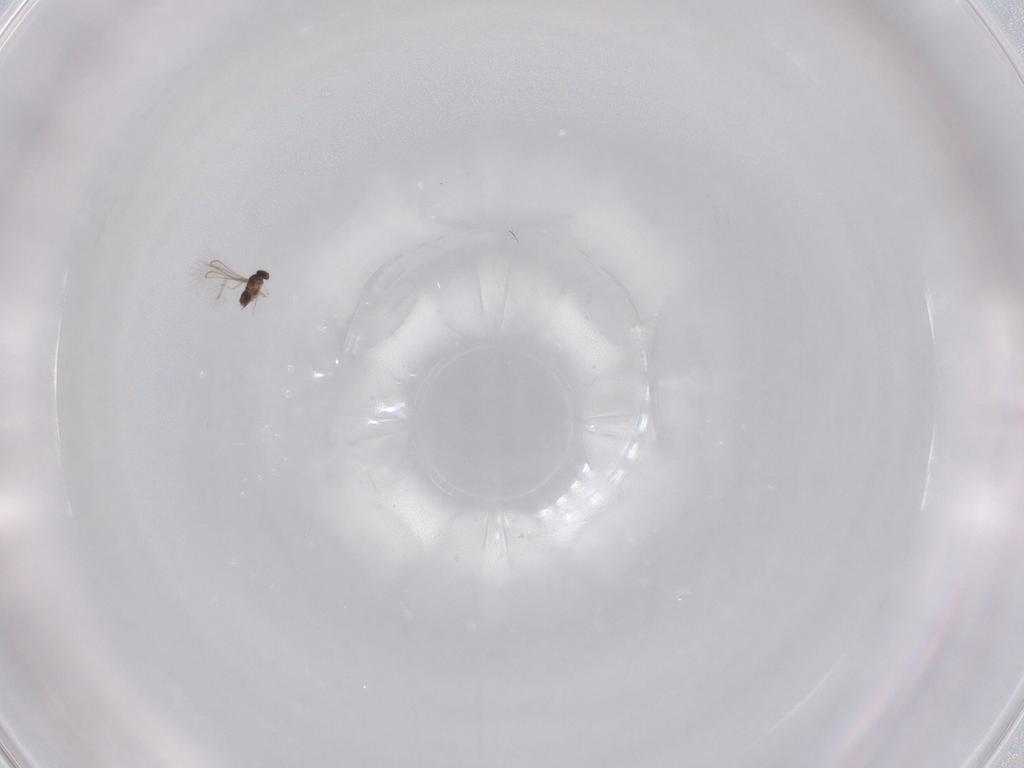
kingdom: Animalia
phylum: Arthropoda
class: Insecta
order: Hymenoptera
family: Mymaridae
